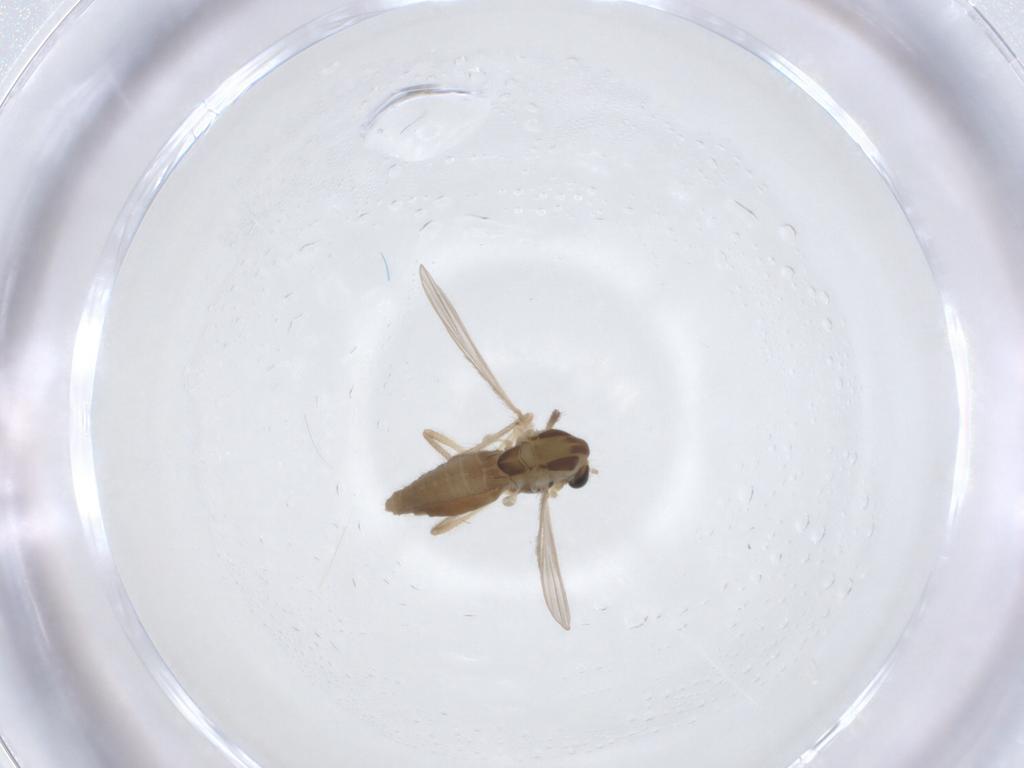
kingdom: Animalia
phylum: Arthropoda
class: Insecta
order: Diptera
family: Chironomidae
